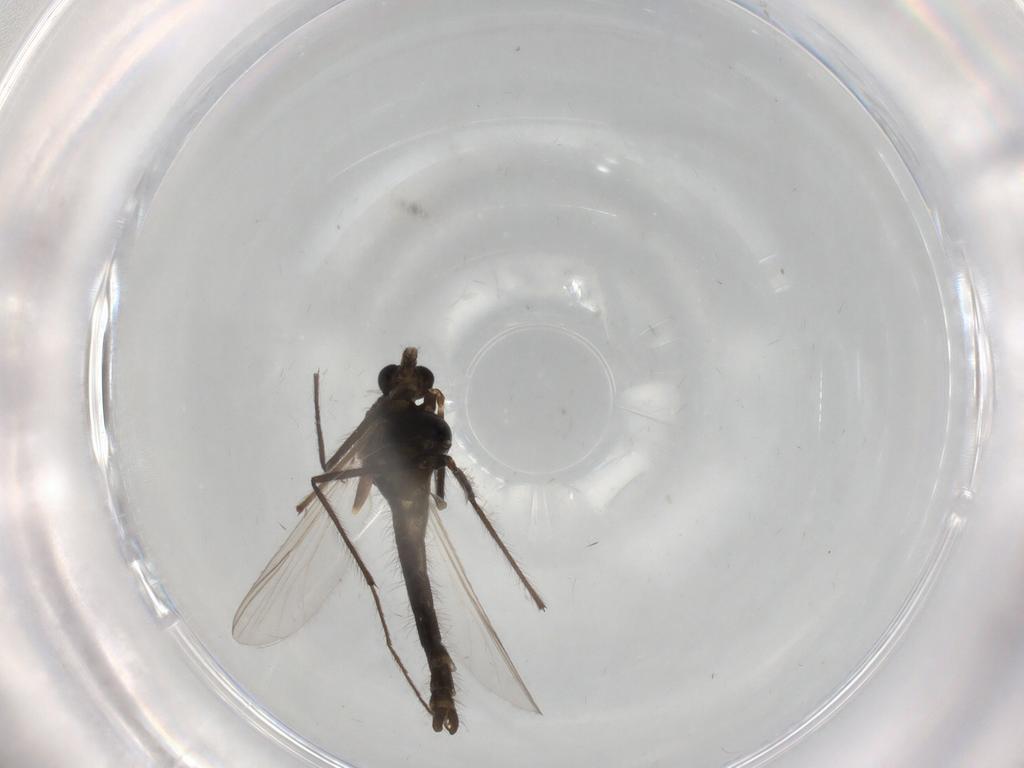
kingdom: Animalia
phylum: Arthropoda
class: Insecta
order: Diptera
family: Chironomidae
